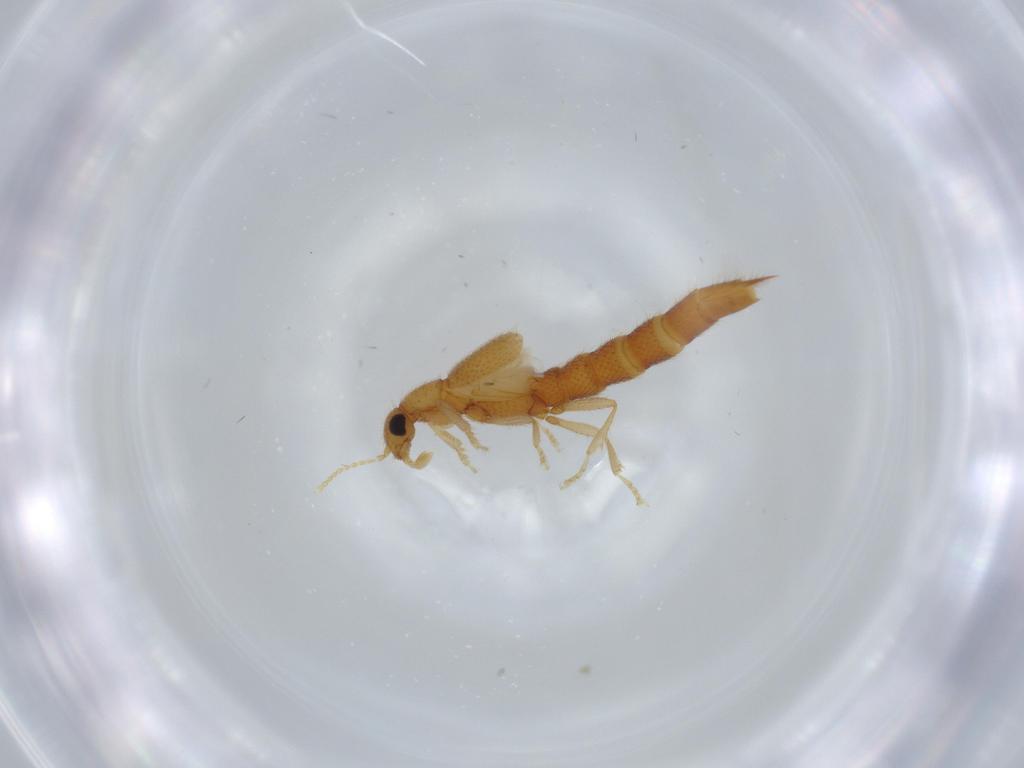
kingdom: Animalia
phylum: Arthropoda
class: Insecta
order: Coleoptera
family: Staphylinidae
